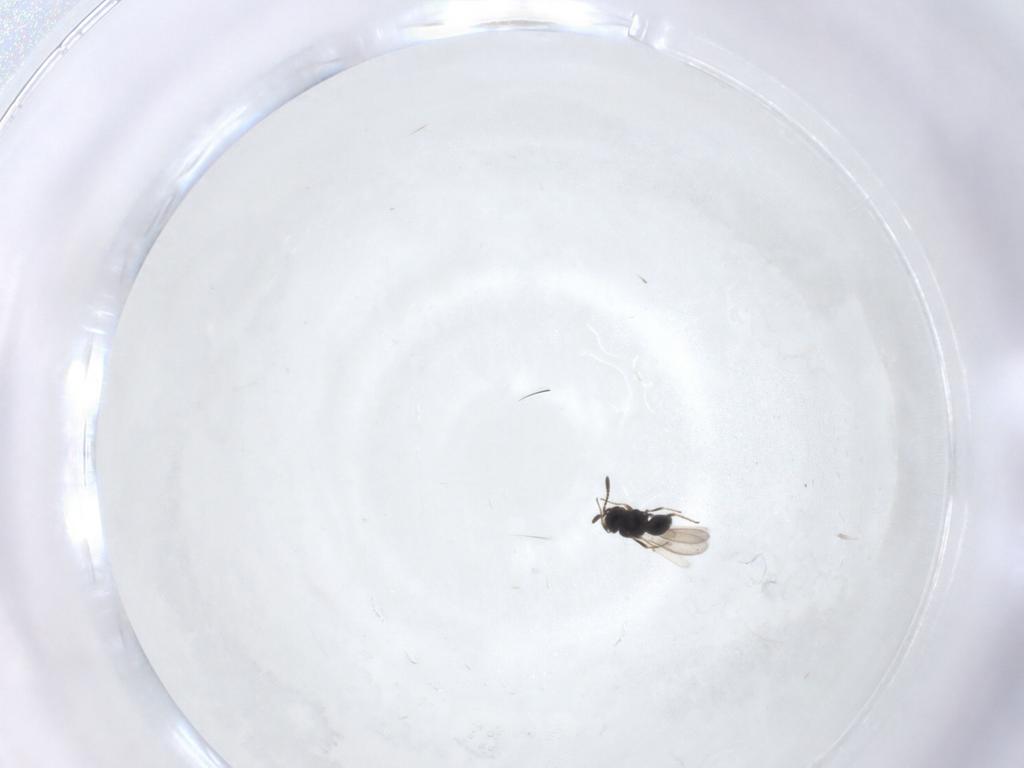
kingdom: Animalia
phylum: Arthropoda
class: Insecta
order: Hymenoptera
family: Scelionidae
